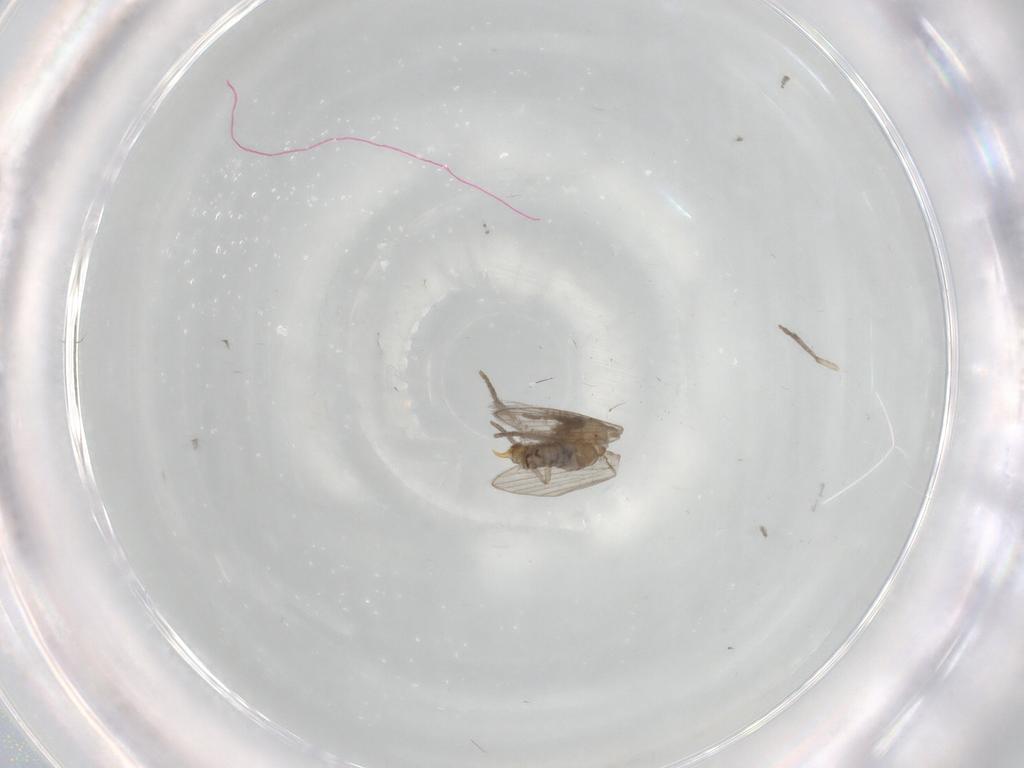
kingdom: Animalia
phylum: Arthropoda
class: Insecta
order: Diptera
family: Psychodidae
